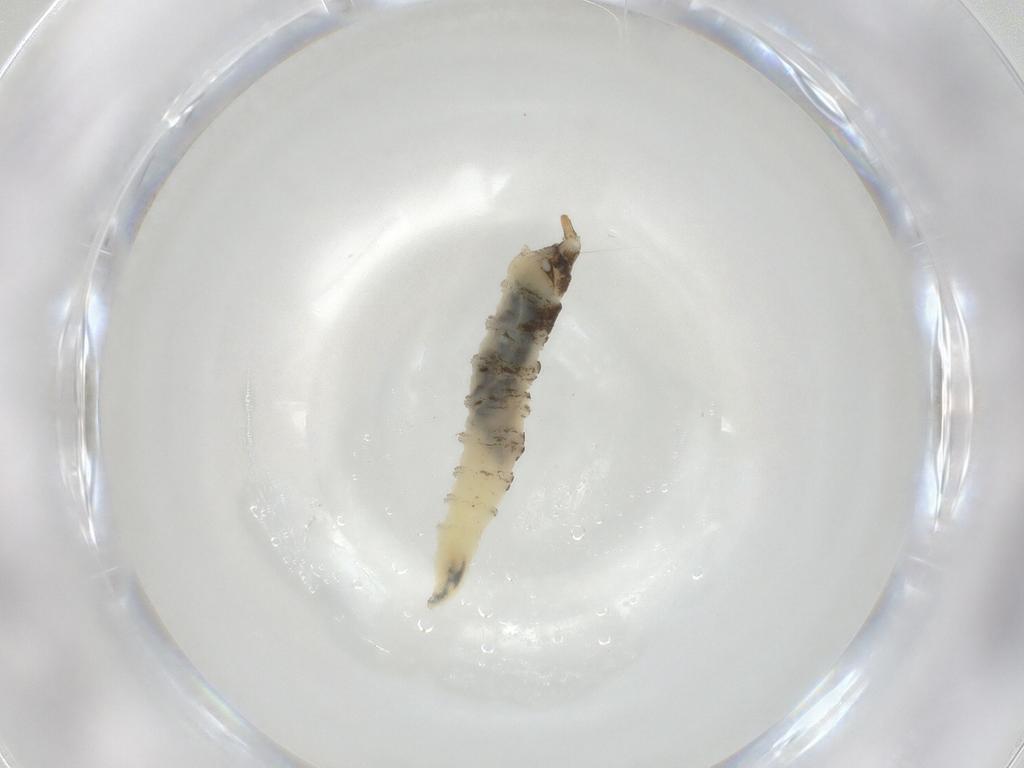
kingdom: Animalia
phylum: Arthropoda
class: Insecta
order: Diptera
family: Drosophilidae
